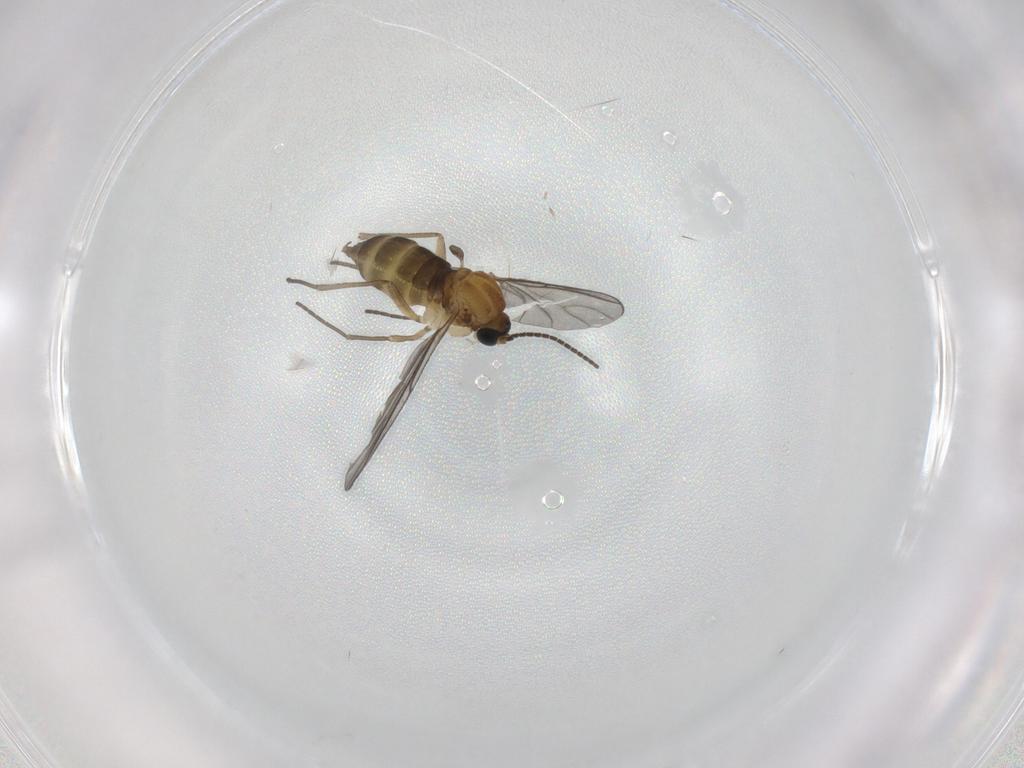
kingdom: Animalia
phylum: Arthropoda
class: Insecta
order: Diptera
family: Sciaridae
